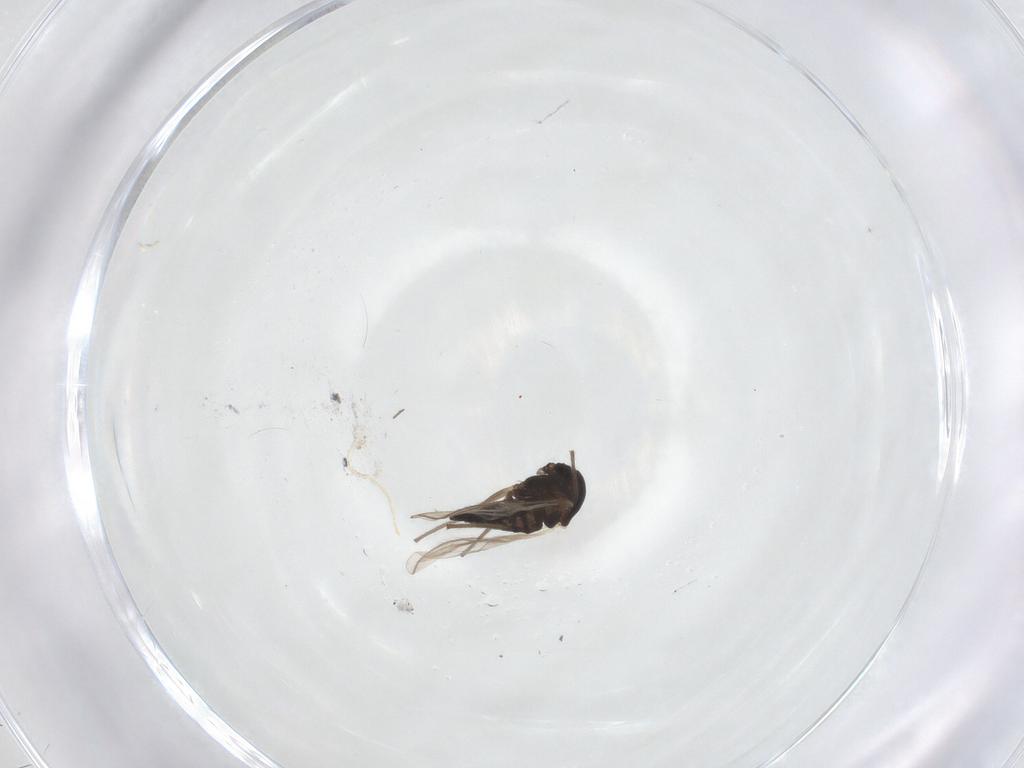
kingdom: Animalia
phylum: Arthropoda
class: Insecta
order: Diptera
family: Chironomidae
